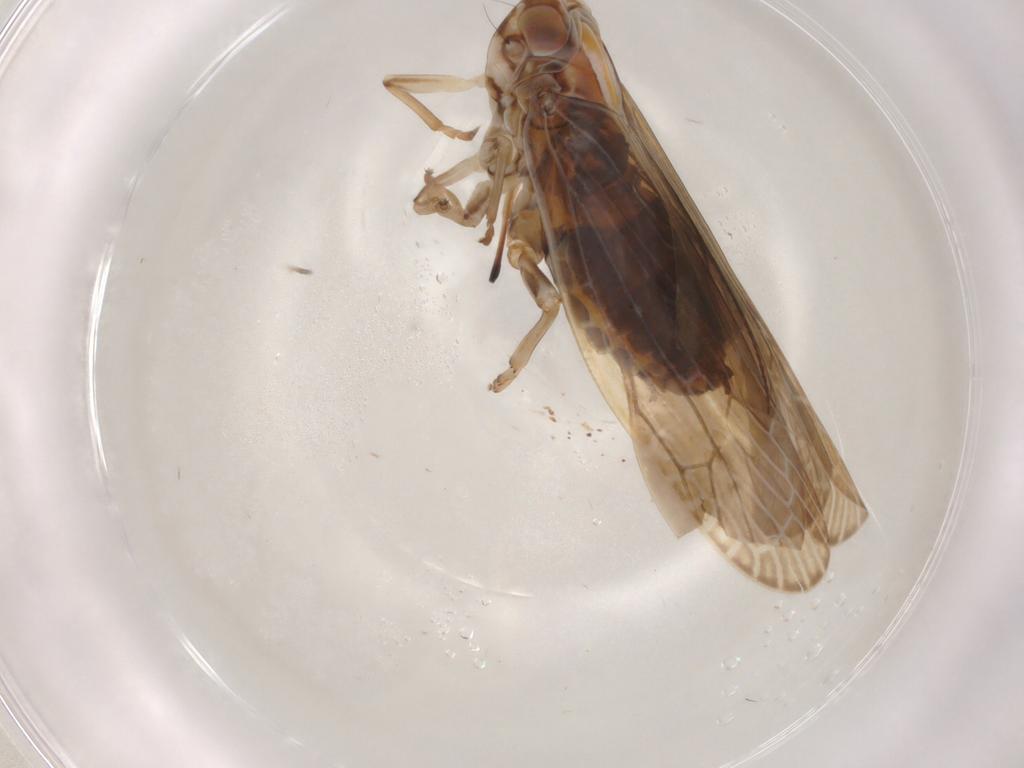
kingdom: Animalia
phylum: Arthropoda
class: Insecta
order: Hemiptera
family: Achilidae
